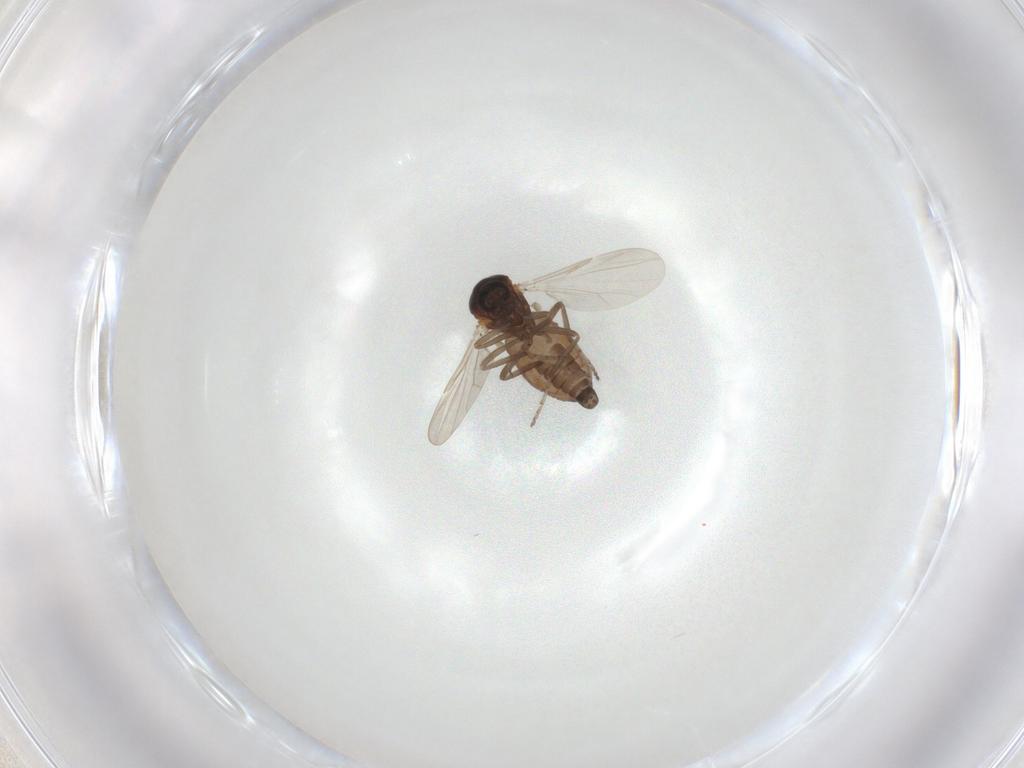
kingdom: Animalia
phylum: Arthropoda
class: Insecta
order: Diptera
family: Ceratopogonidae
